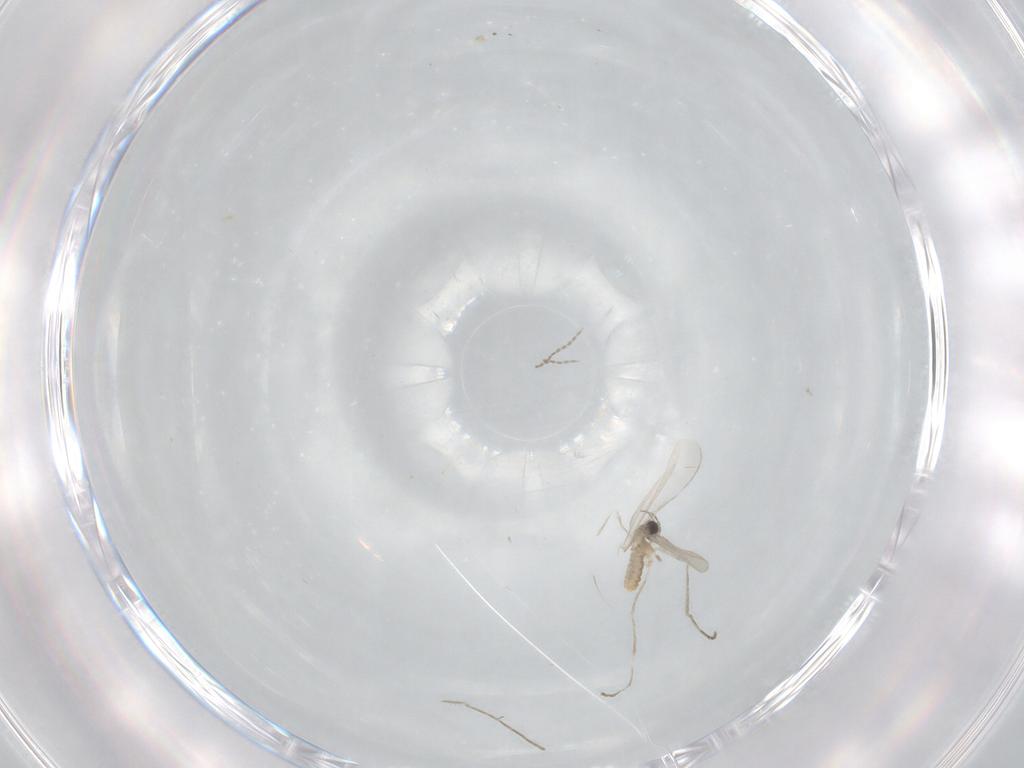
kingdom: Animalia
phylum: Arthropoda
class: Insecta
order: Diptera
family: Cecidomyiidae
